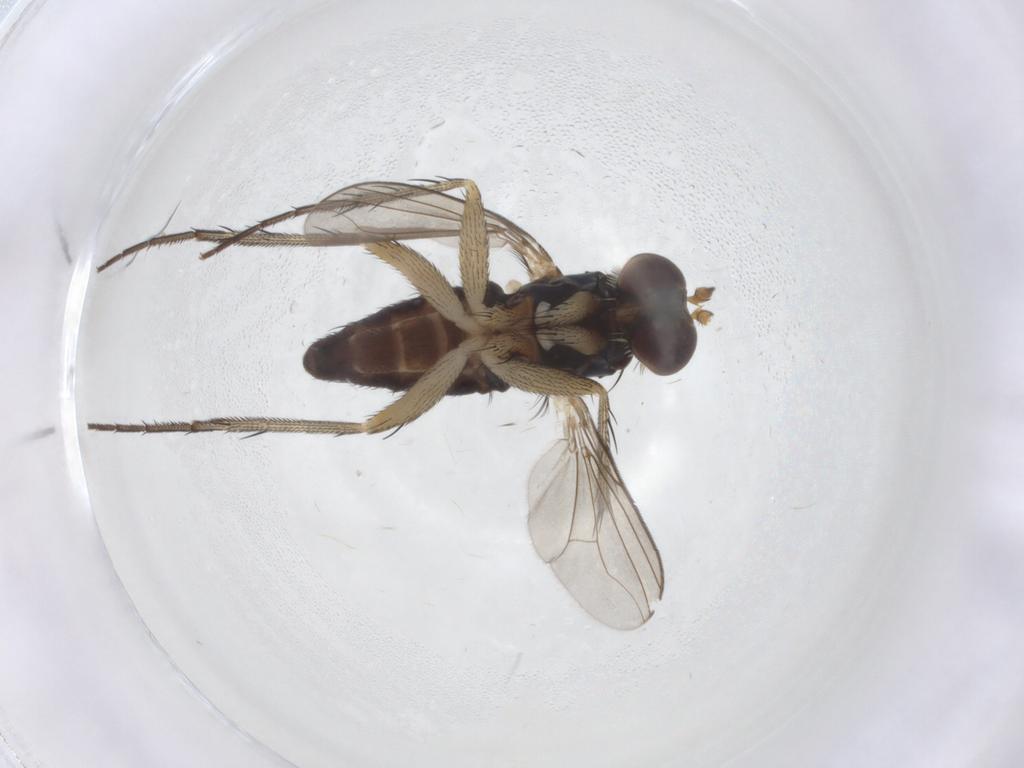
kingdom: Animalia
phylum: Arthropoda
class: Insecta
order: Diptera
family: Dolichopodidae
